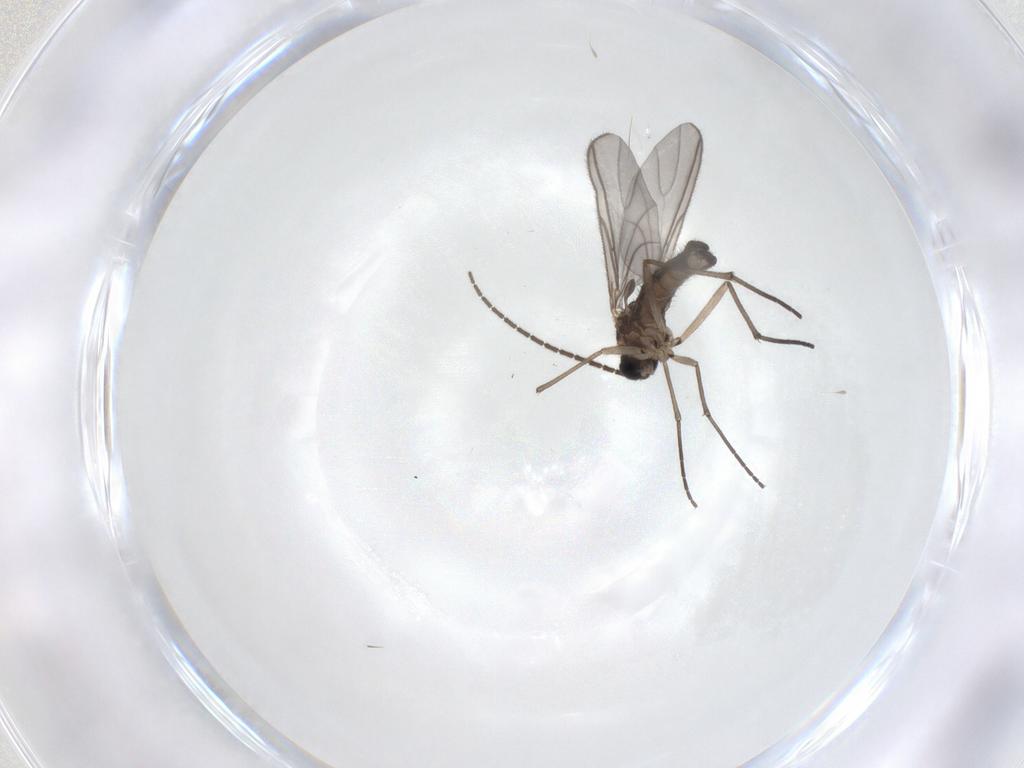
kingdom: Animalia
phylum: Arthropoda
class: Insecta
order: Diptera
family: Sciaridae
